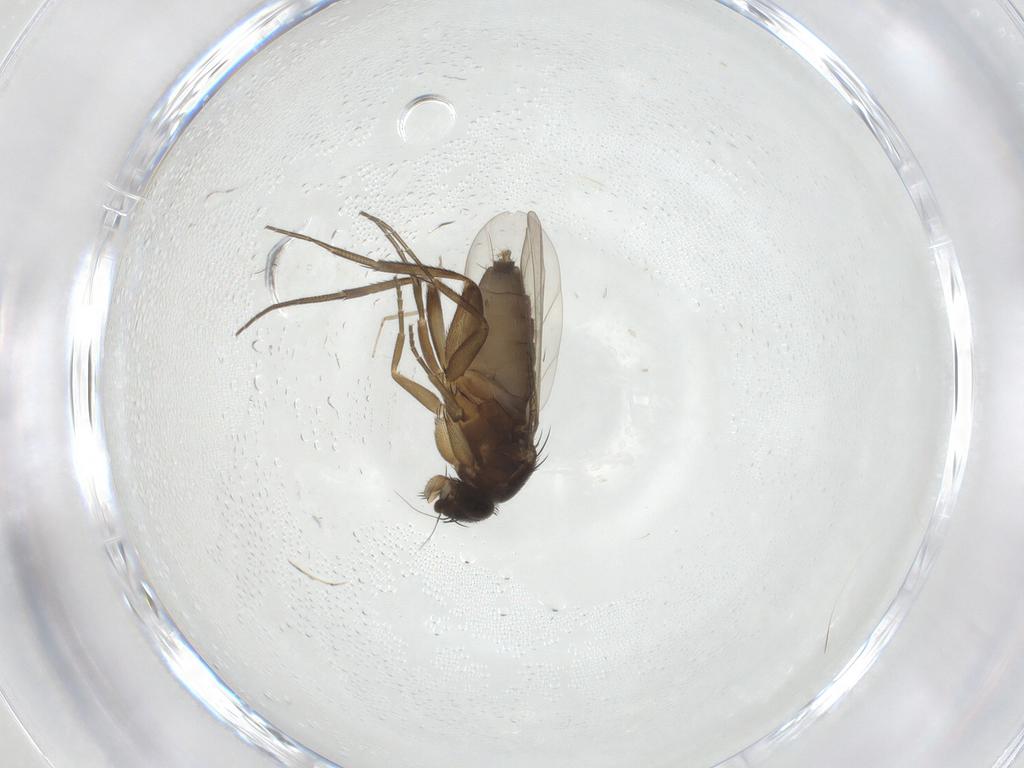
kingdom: Animalia
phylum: Arthropoda
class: Insecta
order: Diptera
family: Phoridae
